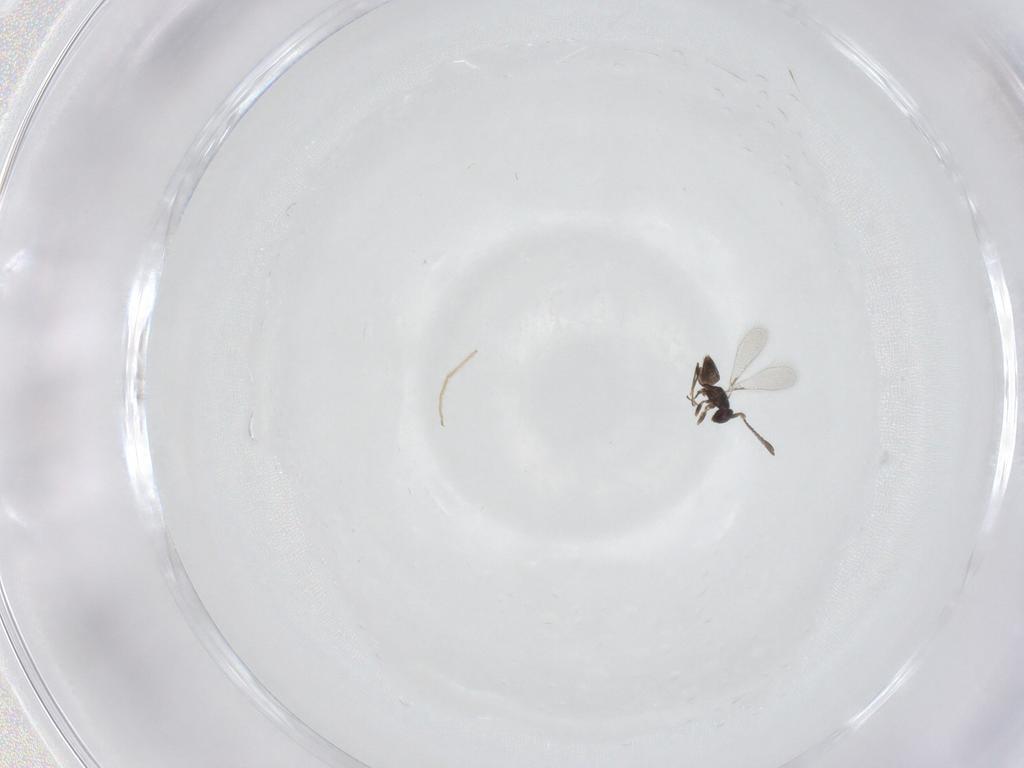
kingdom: Animalia
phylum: Arthropoda
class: Insecta
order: Diptera
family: Chironomidae
